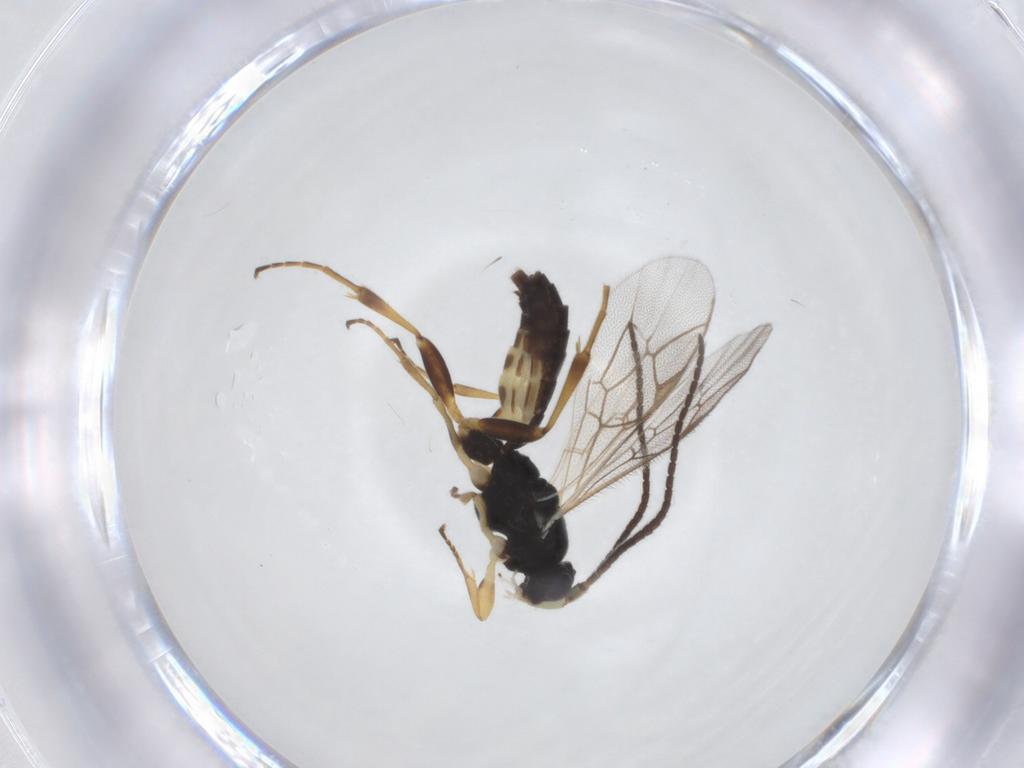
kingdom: Animalia
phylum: Arthropoda
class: Insecta
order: Hymenoptera
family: Ichneumonidae
